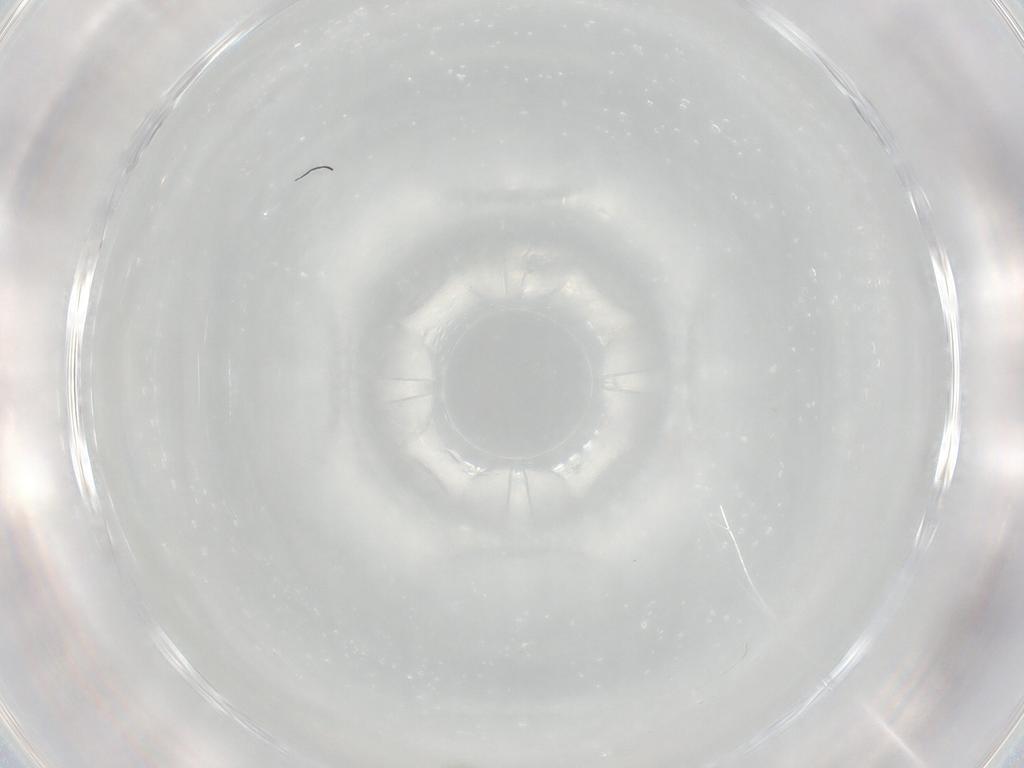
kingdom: Animalia
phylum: Arthropoda
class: Insecta
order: Diptera
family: Cecidomyiidae
